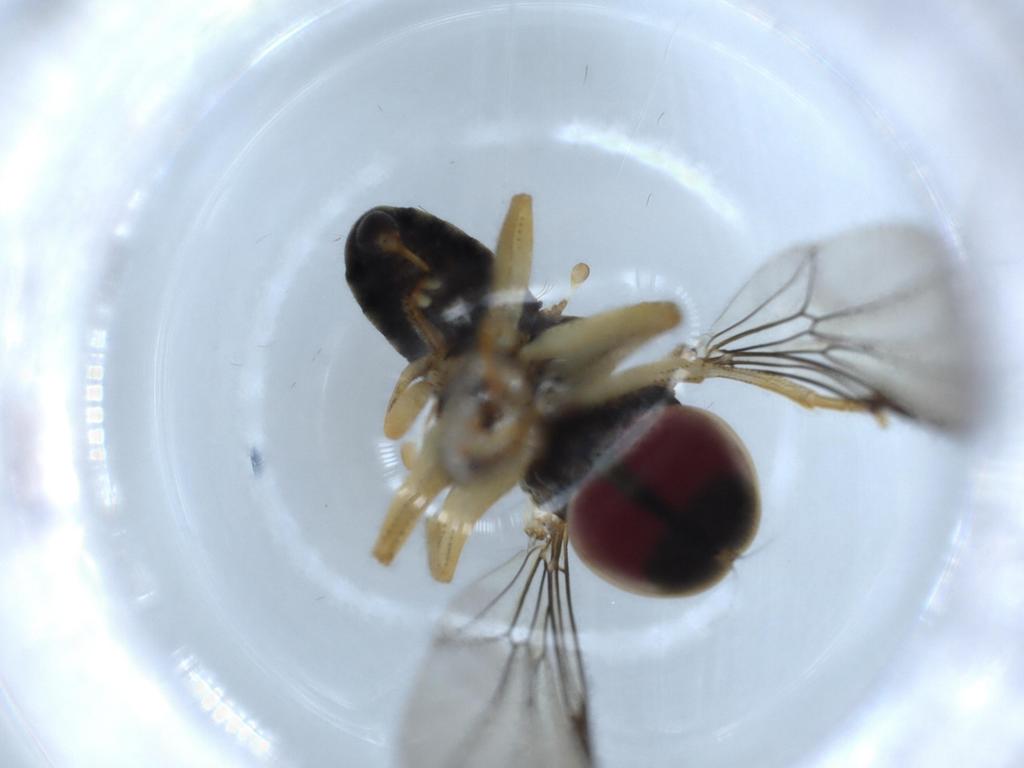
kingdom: Animalia
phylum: Arthropoda
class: Insecta
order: Diptera
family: Pipunculidae
